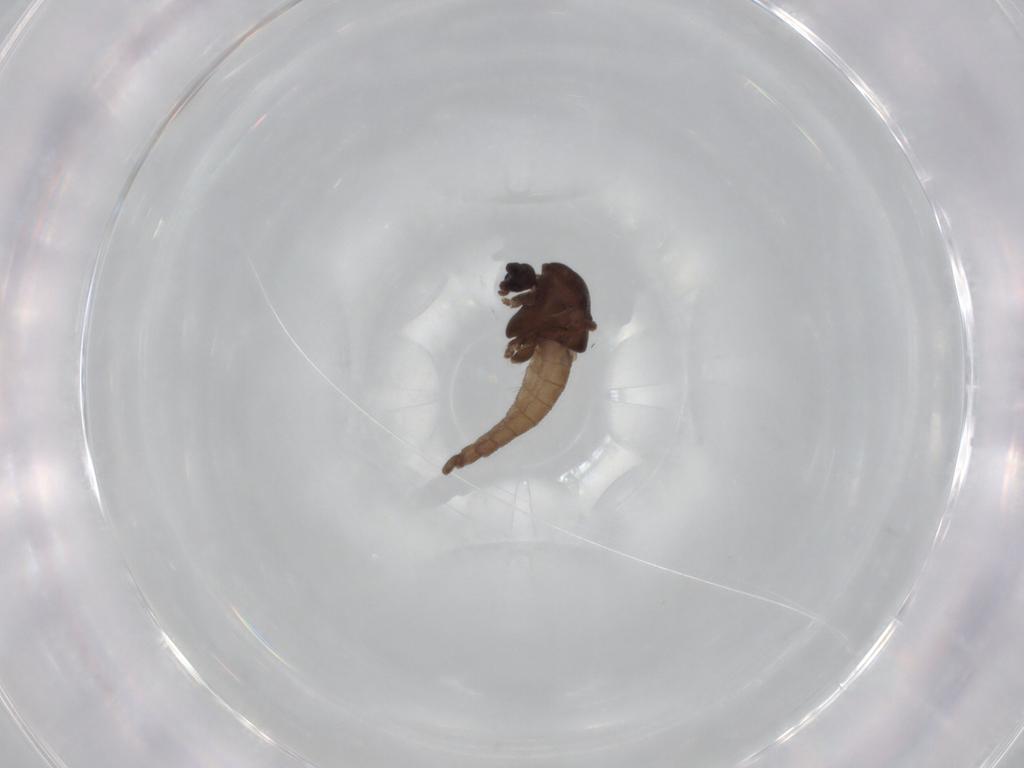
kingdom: Animalia
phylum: Arthropoda
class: Insecta
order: Diptera
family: Chironomidae
